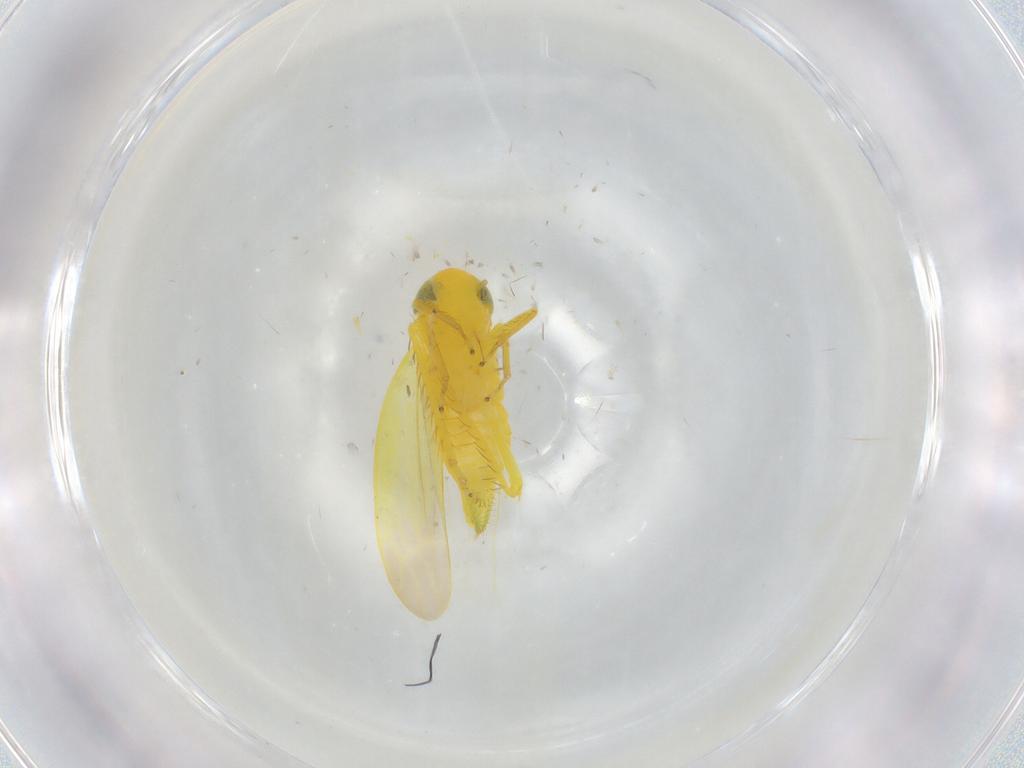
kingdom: Animalia
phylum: Arthropoda
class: Insecta
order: Hemiptera
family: Cicadellidae
